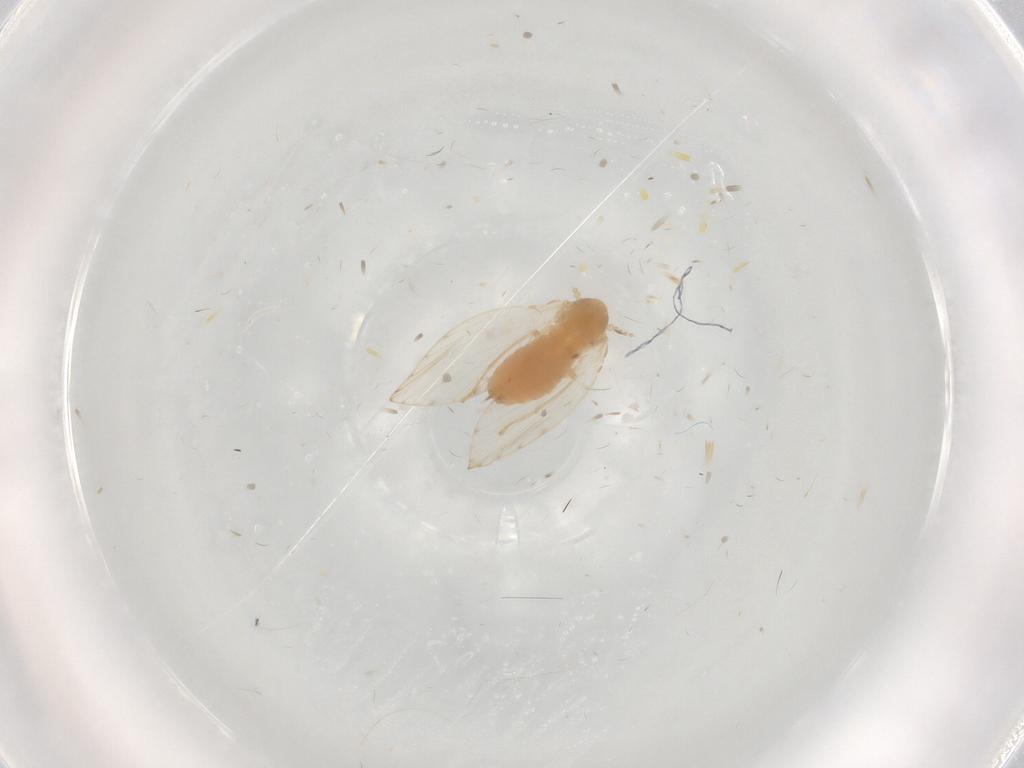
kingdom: Animalia
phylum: Arthropoda
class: Insecta
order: Diptera
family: Psychodidae
